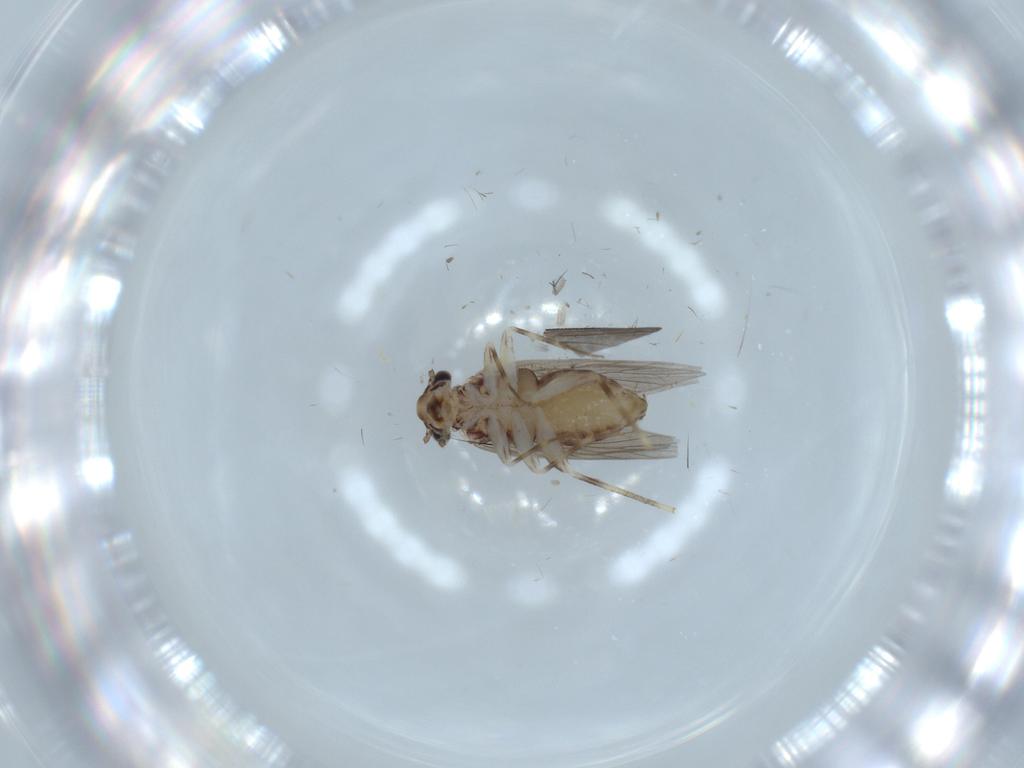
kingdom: Animalia
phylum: Arthropoda
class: Insecta
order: Psocodea
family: Lepidopsocidae
